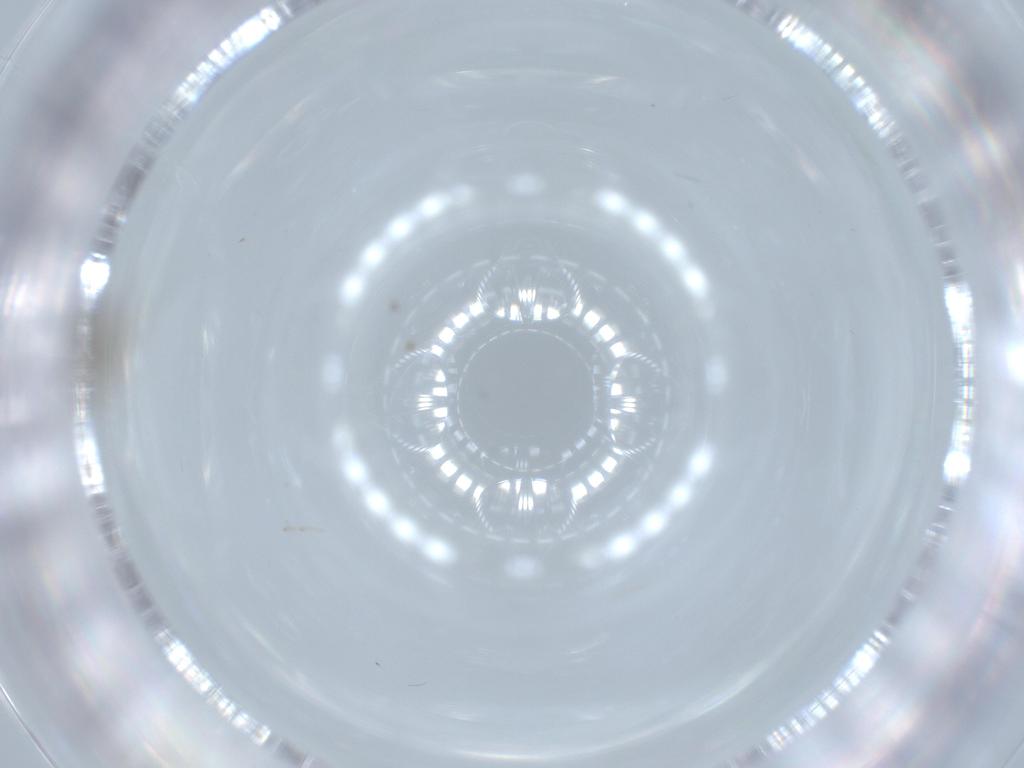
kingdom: Animalia
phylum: Arthropoda
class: Insecta
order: Diptera
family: Cecidomyiidae
